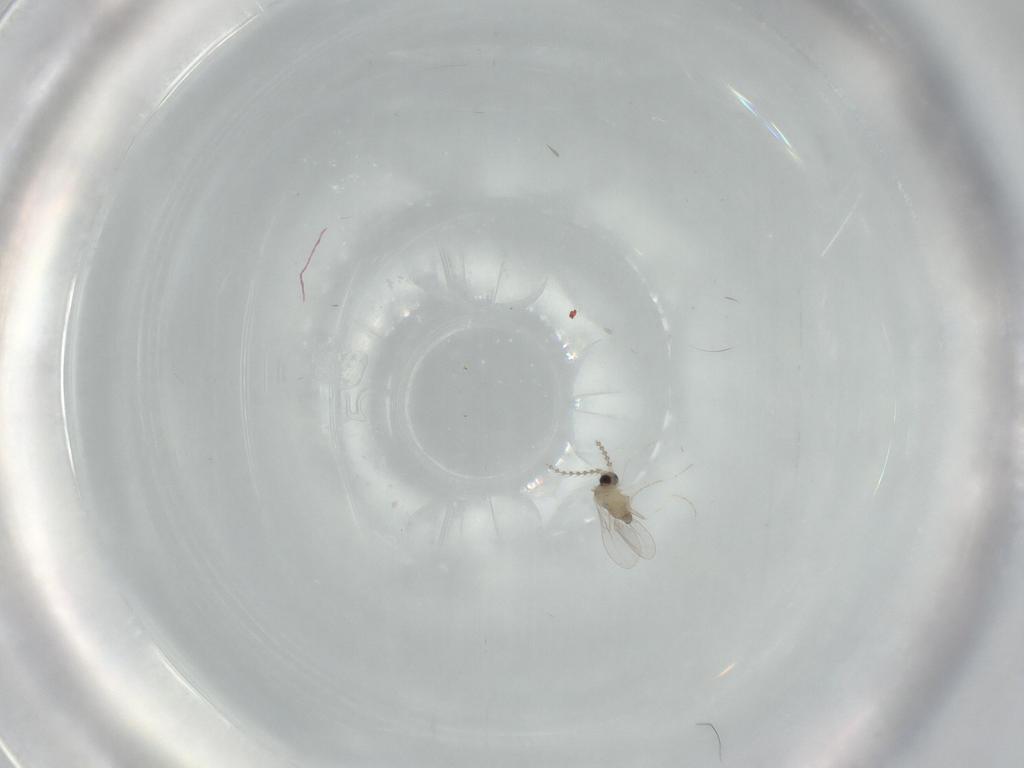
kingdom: Animalia
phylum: Arthropoda
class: Insecta
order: Diptera
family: Cecidomyiidae
